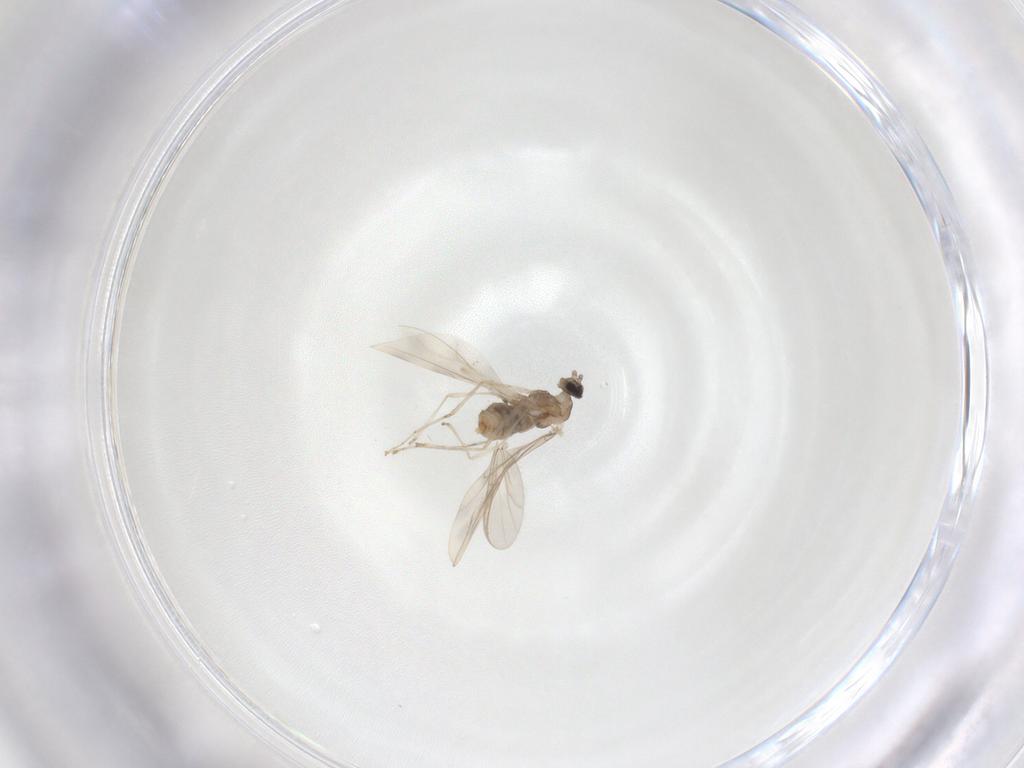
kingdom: Animalia
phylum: Arthropoda
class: Insecta
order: Diptera
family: Cecidomyiidae
